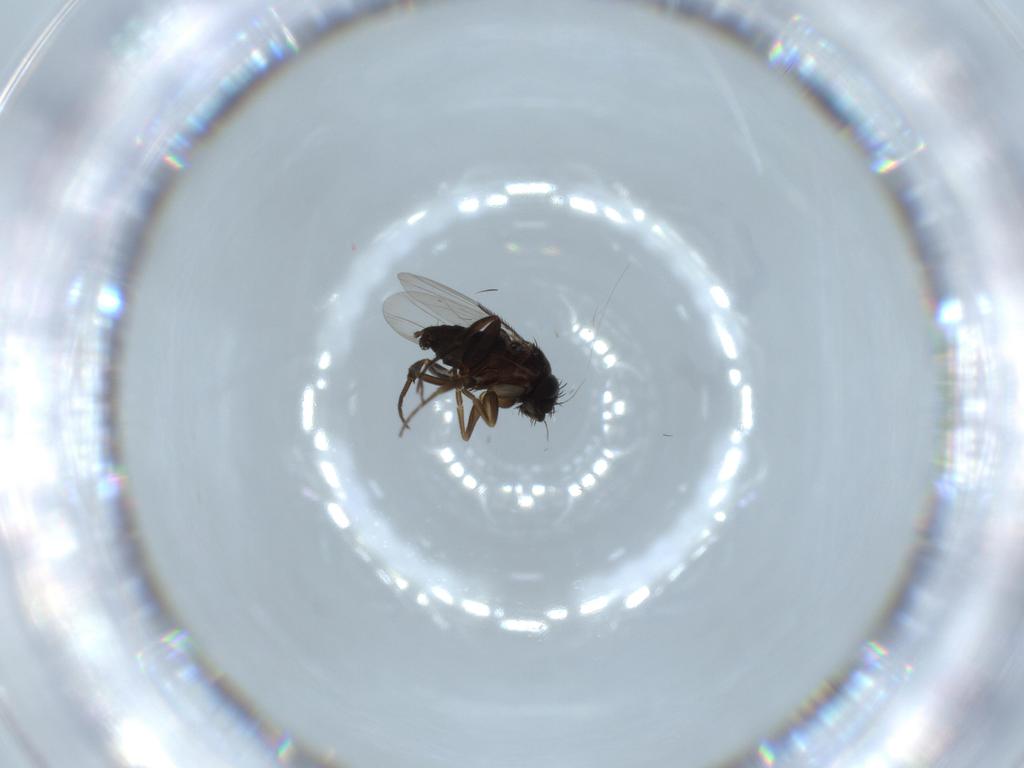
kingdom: Animalia
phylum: Arthropoda
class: Insecta
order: Diptera
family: Phoridae
